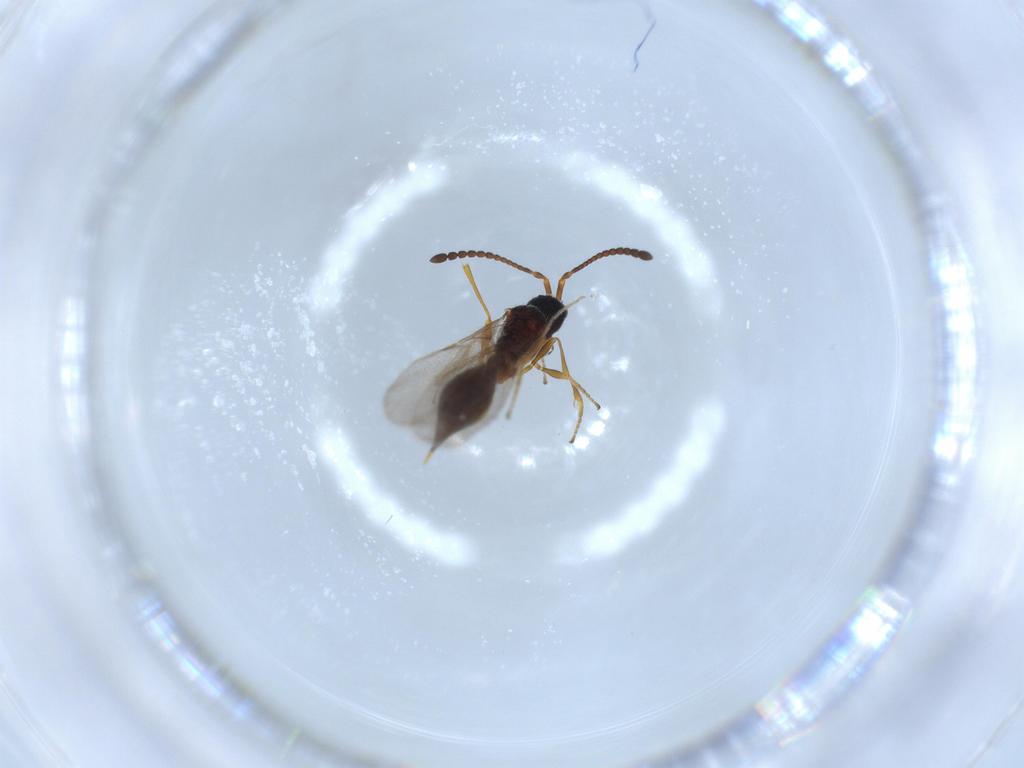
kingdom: Animalia
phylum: Arthropoda
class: Insecta
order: Hymenoptera
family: Diapriidae
